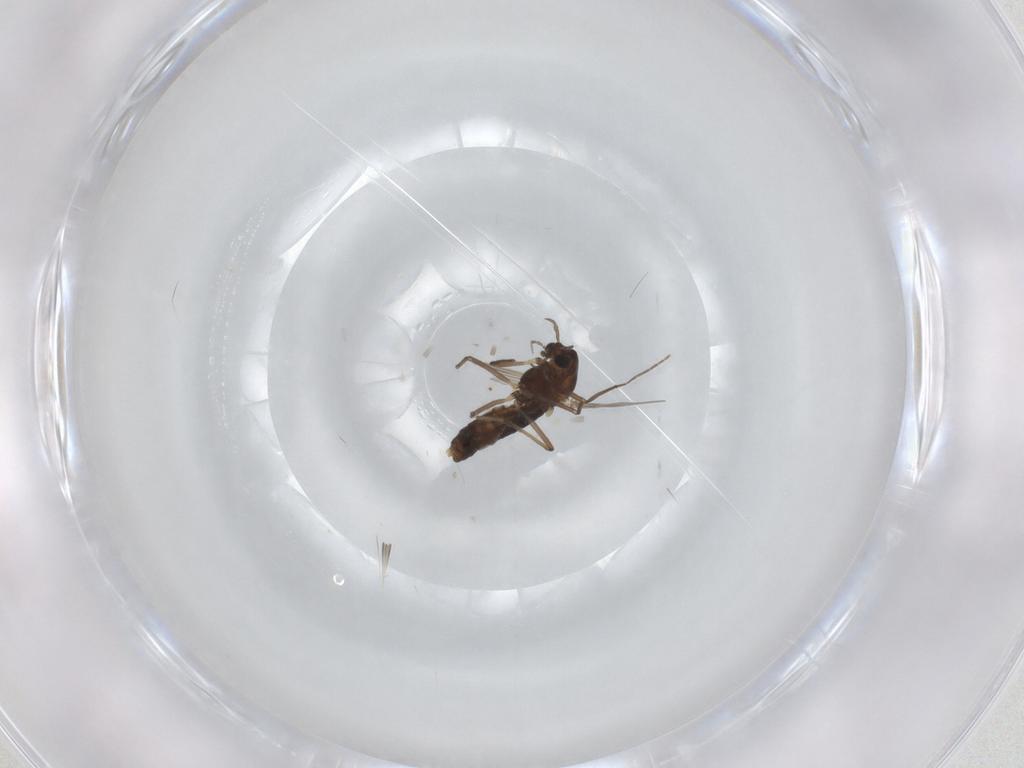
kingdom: Animalia
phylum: Arthropoda
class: Insecta
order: Diptera
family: Chironomidae
